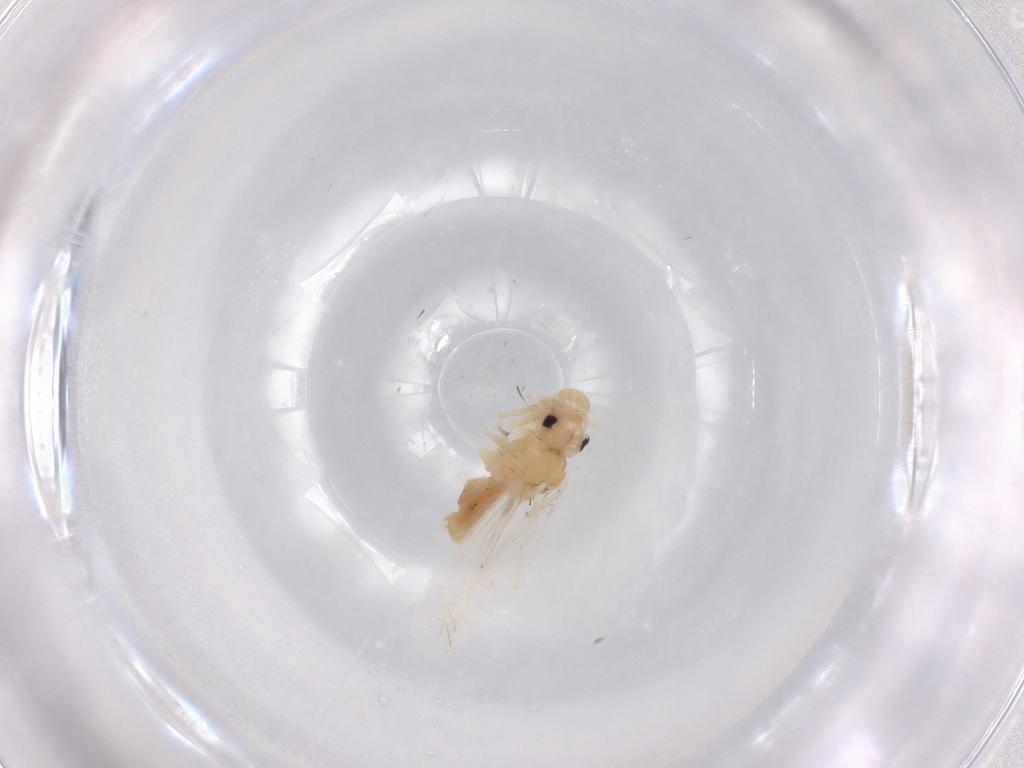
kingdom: Animalia
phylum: Arthropoda
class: Insecta
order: Psocodea
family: Caeciliusidae
